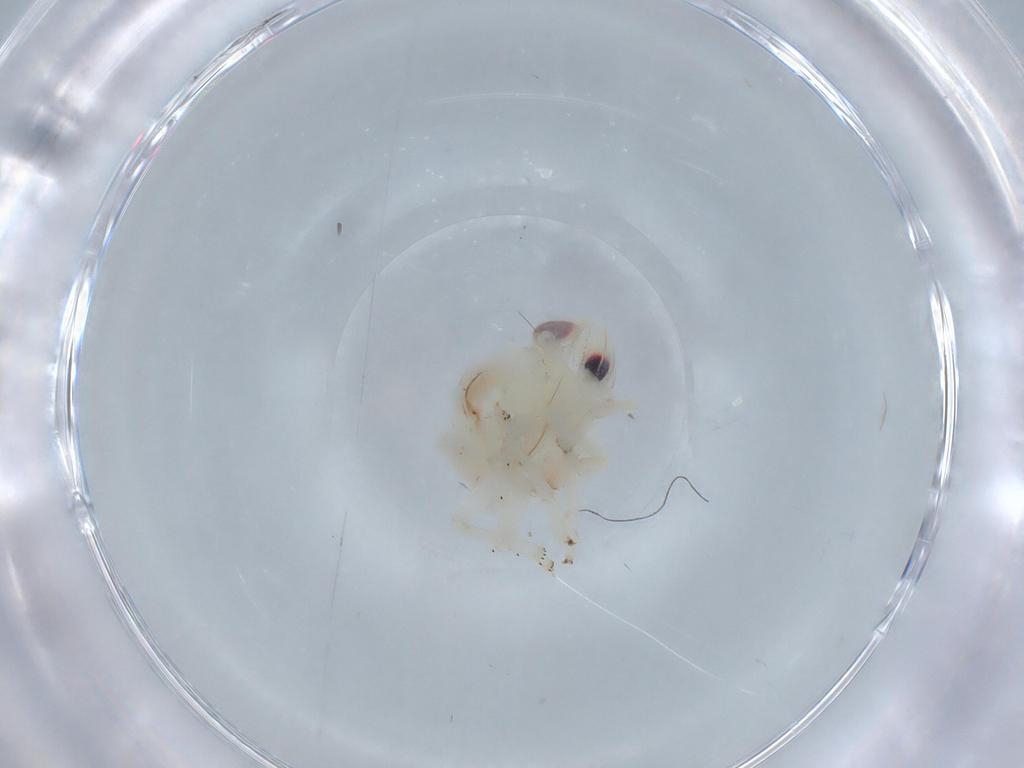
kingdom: Animalia
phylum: Arthropoda
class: Insecta
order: Hemiptera
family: Nogodinidae
